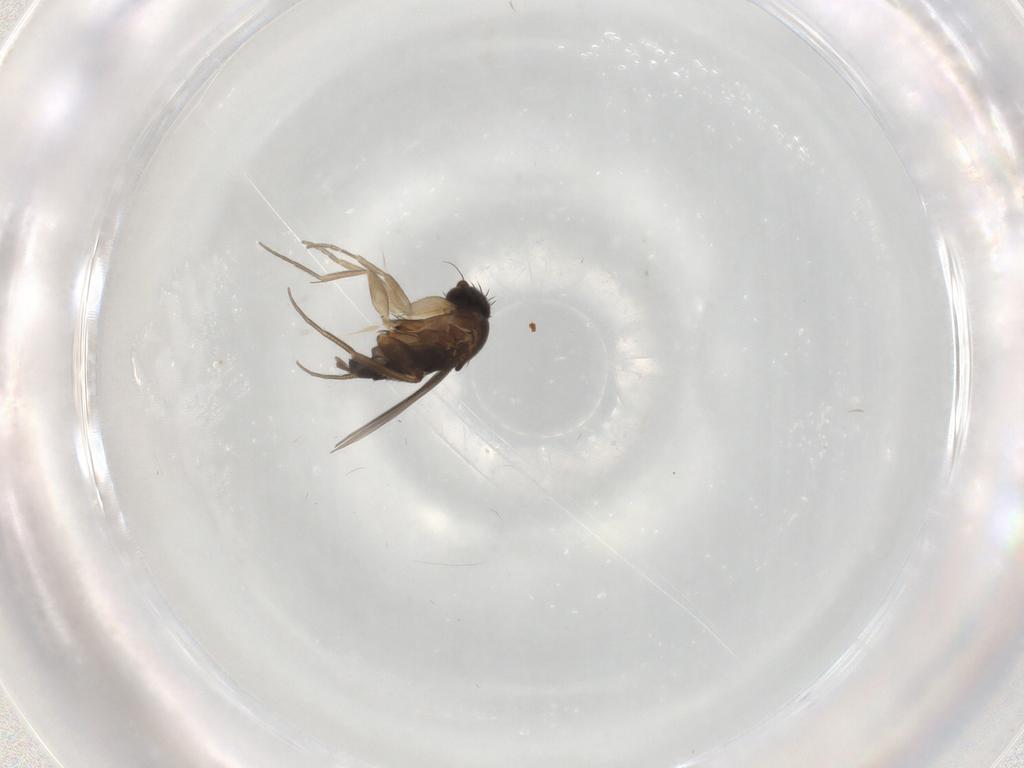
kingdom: Animalia
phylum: Arthropoda
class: Insecta
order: Diptera
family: Phoridae
